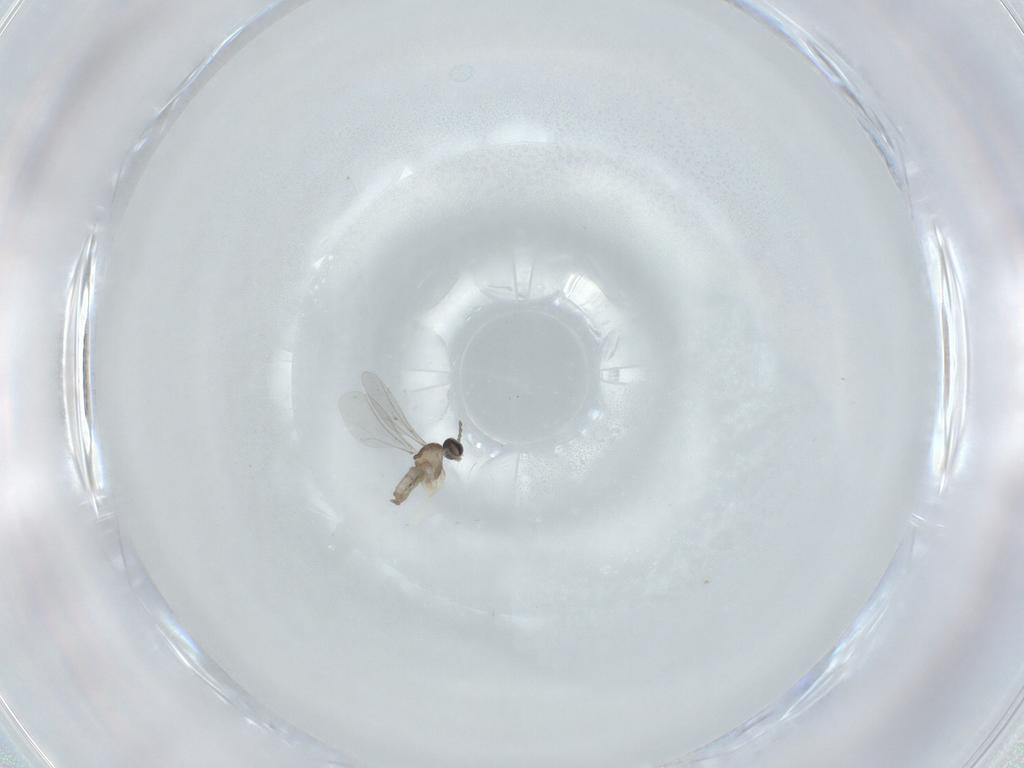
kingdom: Animalia
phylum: Arthropoda
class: Insecta
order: Diptera
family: Cecidomyiidae
